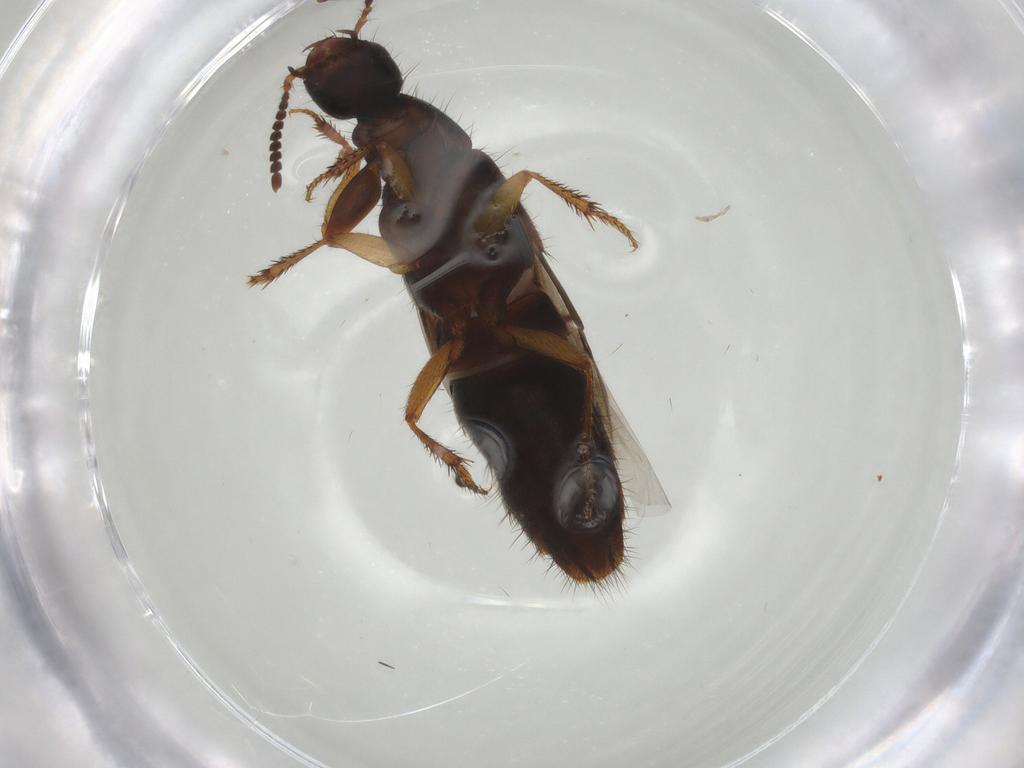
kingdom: Animalia
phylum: Arthropoda
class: Insecta
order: Coleoptera
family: Staphylinidae
